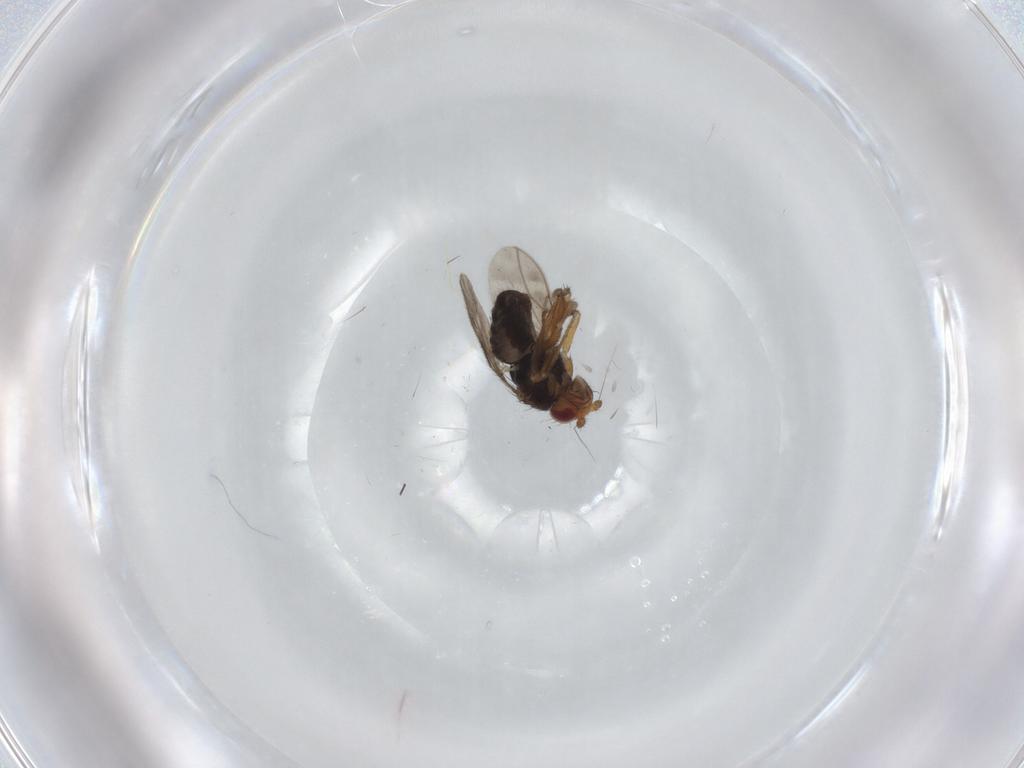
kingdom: Animalia
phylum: Arthropoda
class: Insecta
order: Diptera
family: Sphaeroceridae
